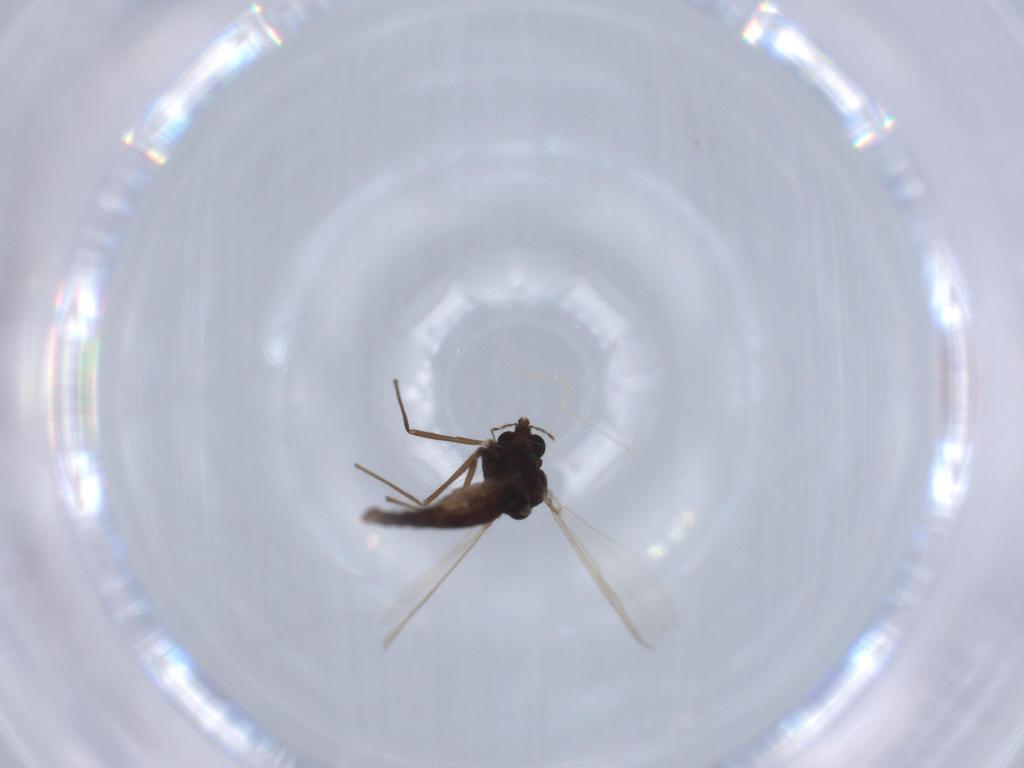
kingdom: Animalia
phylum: Arthropoda
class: Insecta
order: Diptera
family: Chironomidae
